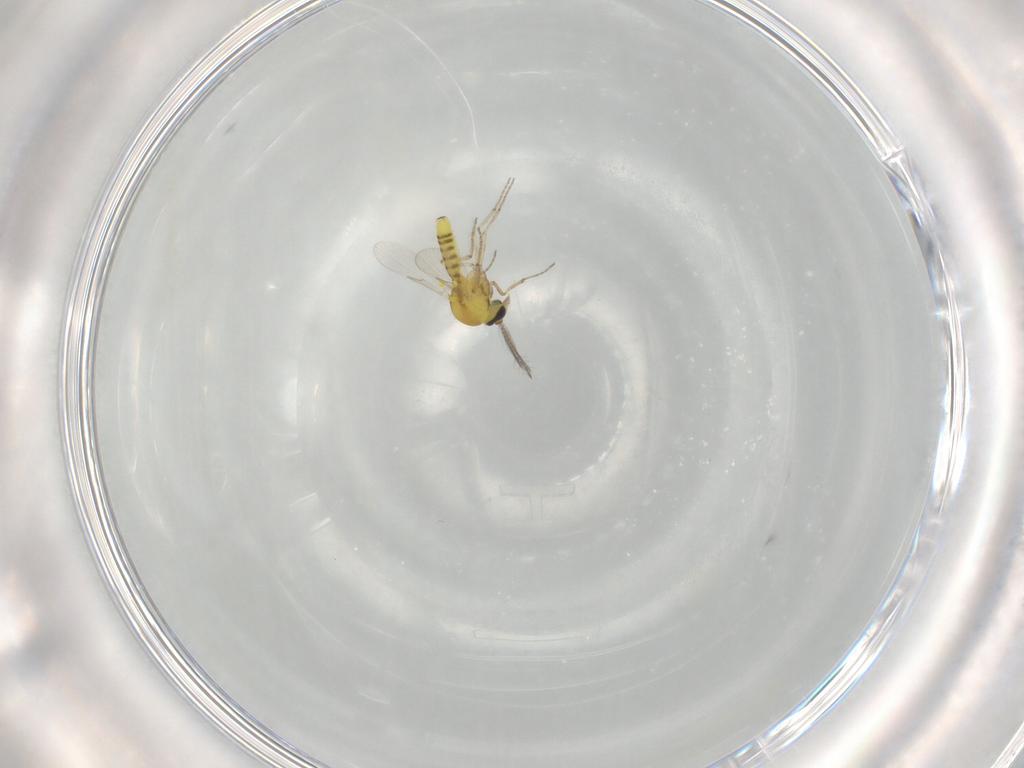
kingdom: Animalia
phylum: Arthropoda
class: Insecta
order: Diptera
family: Ceratopogonidae
